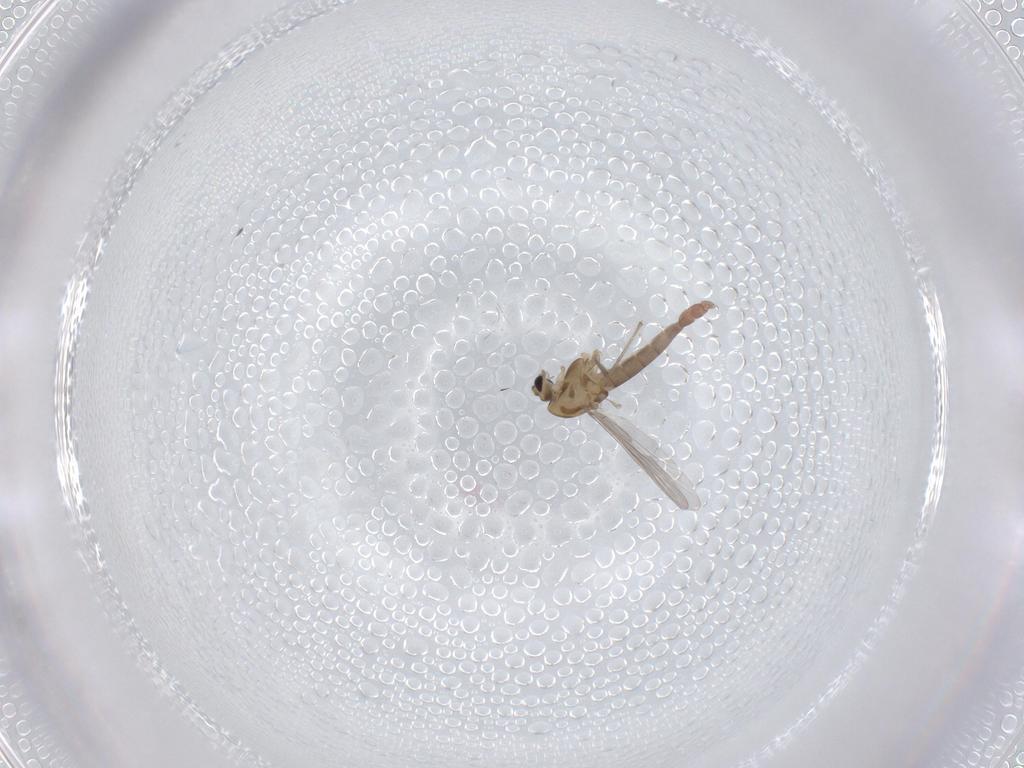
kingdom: Animalia
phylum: Arthropoda
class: Insecta
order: Diptera
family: Chironomidae
